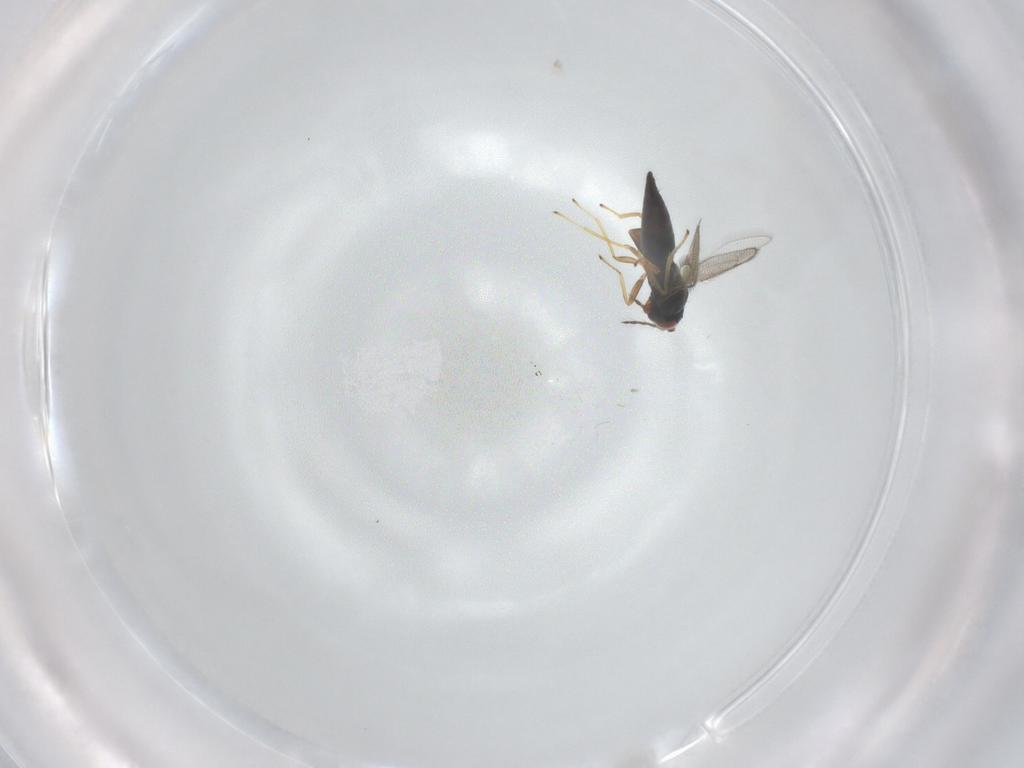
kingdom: Animalia
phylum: Arthropoda
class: Insecta
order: Hymenoptera
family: Eulophidae
